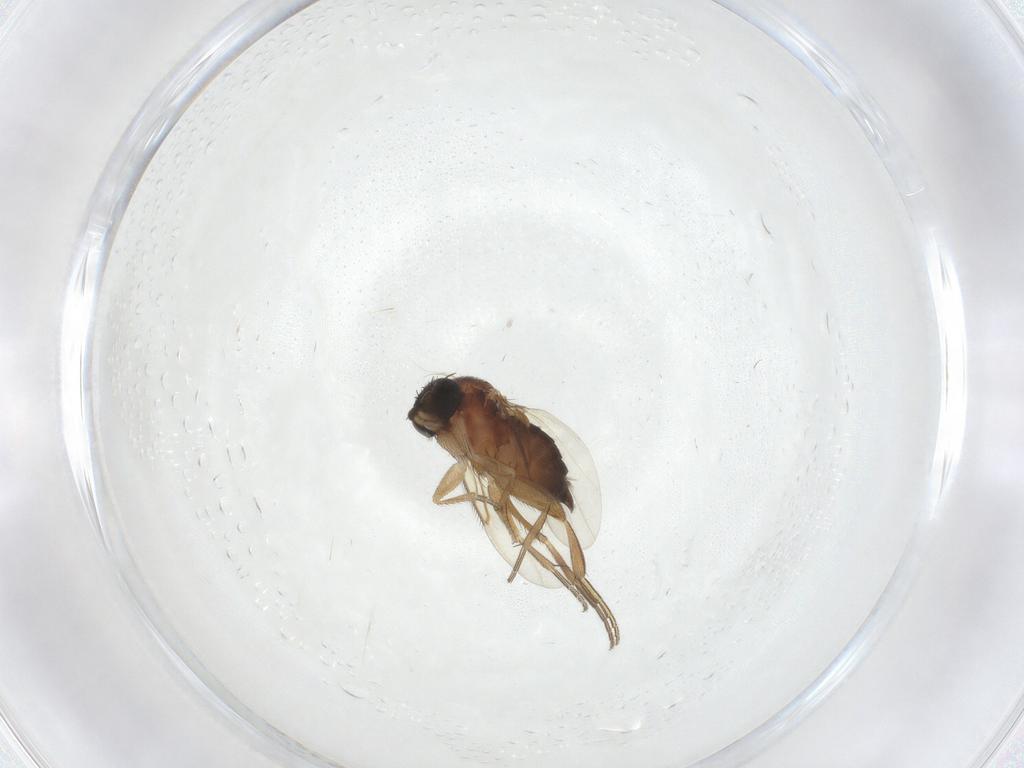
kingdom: Animalia
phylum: Arthropoda
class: Insecta
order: Diptera
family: Phoridae
